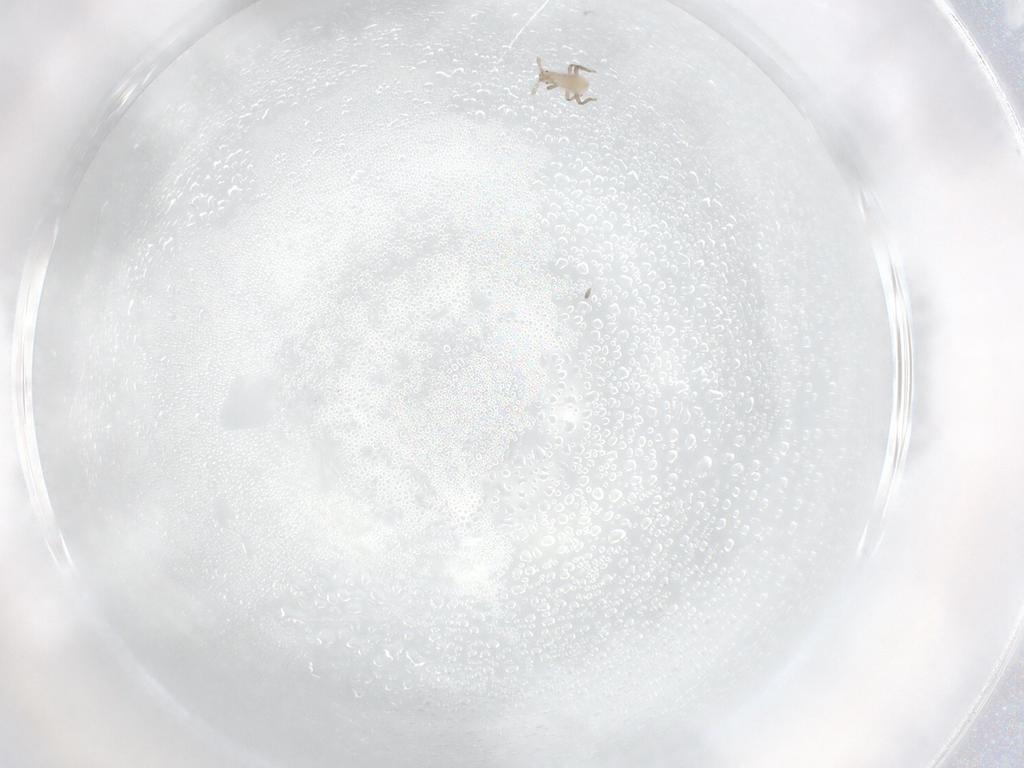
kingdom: Animalia
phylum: Arthropoda
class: Insecta
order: Hemiptera
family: Aphididae
